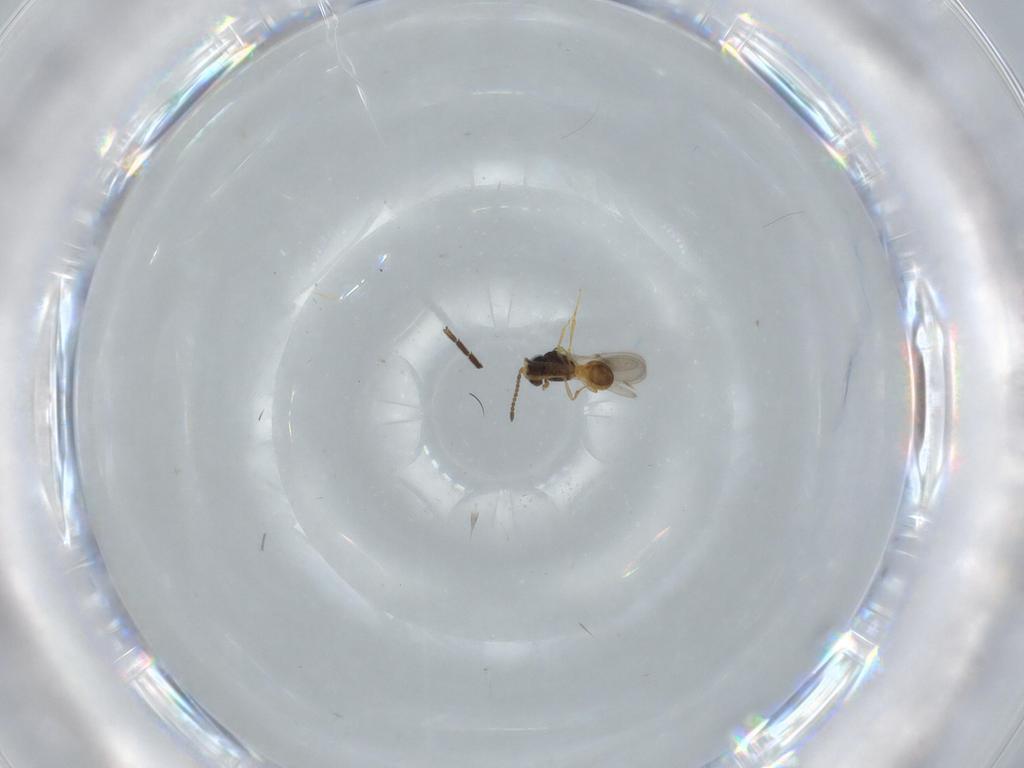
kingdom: Animalia
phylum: Arthropoda
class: Insecta
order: Hymenoptera
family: Scelionidae
